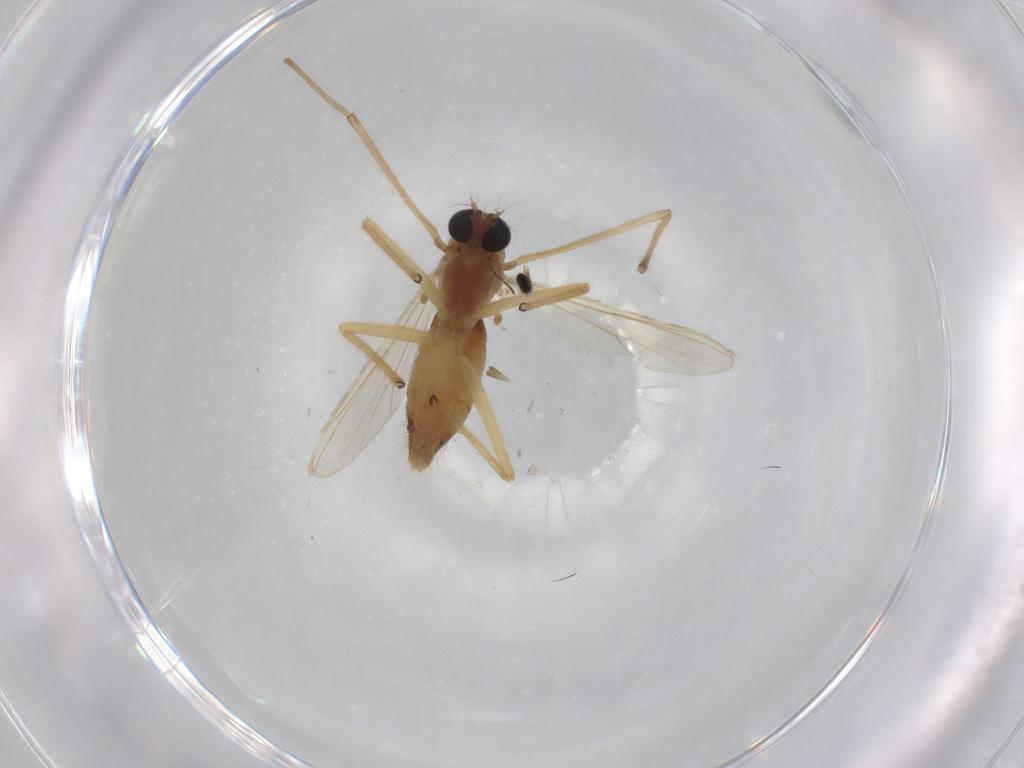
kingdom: Animalia
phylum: Arthropoda
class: Insecta
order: Diptera
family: Chironomidae
